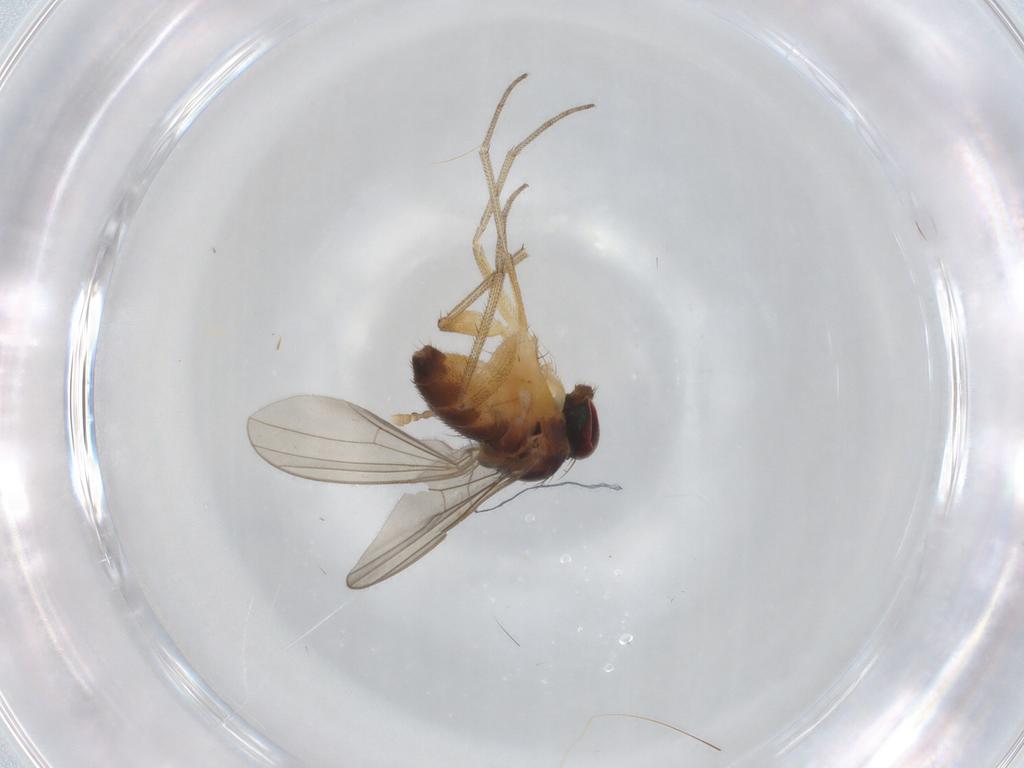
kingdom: Animalia
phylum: Arthropoda
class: Insecta
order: Diptera
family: Dolichopodidae
